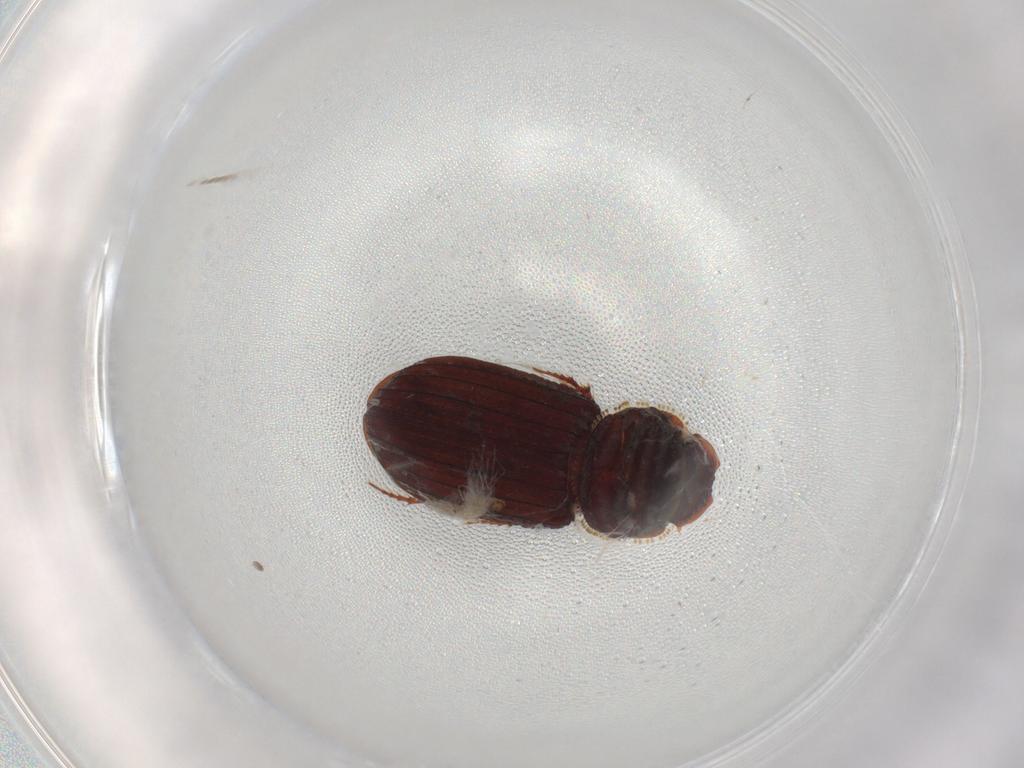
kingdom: Animalia
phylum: Arthropoda
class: Insecta
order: Coleoptera
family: Scarabaeidae
